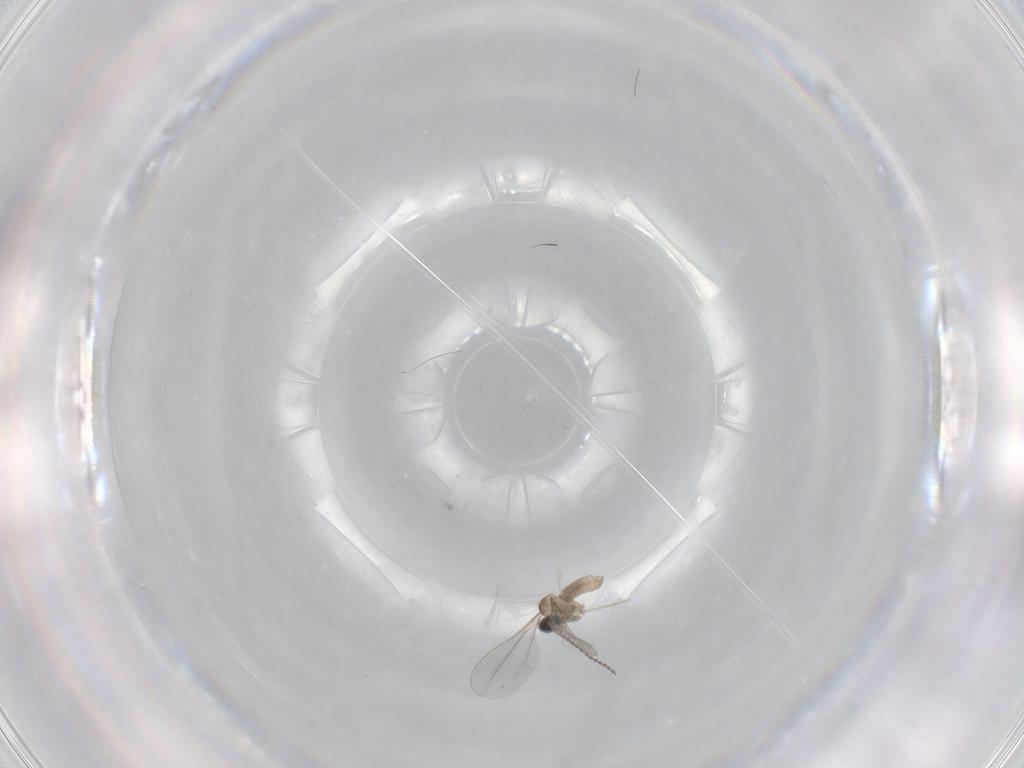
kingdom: Animalia
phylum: Arthropoda
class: Insecta
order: Diptera
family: Cecidomyiidae
